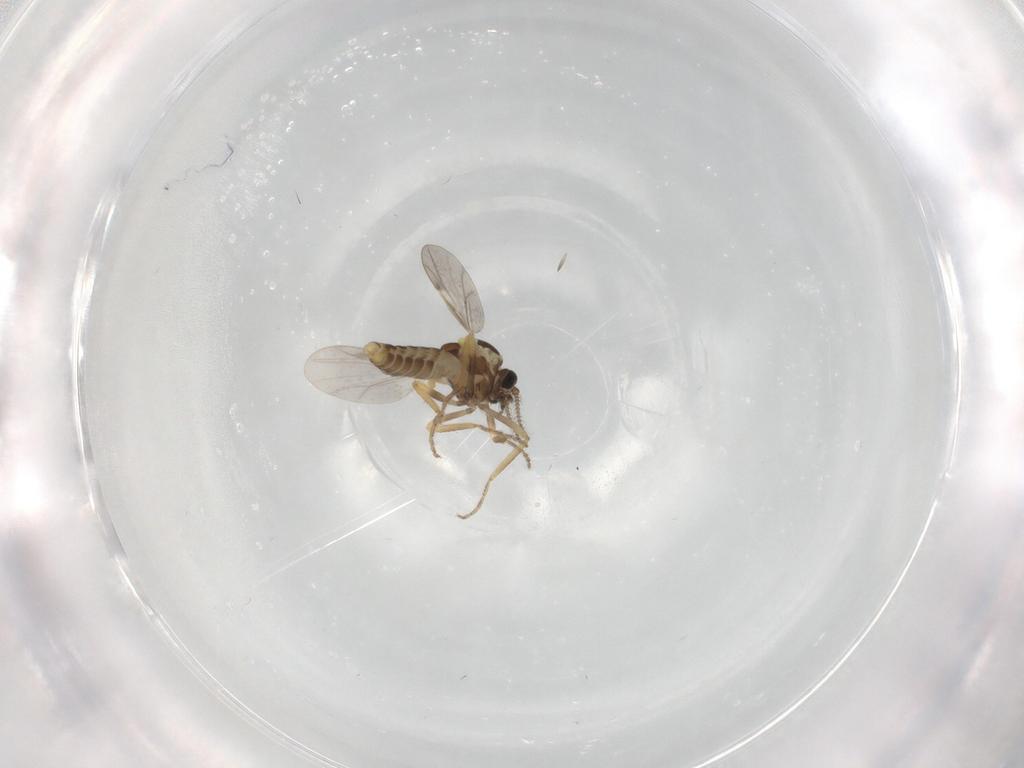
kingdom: Animalia
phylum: Arthropoda
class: Insecta
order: Diptera
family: Ceratopogonidae
